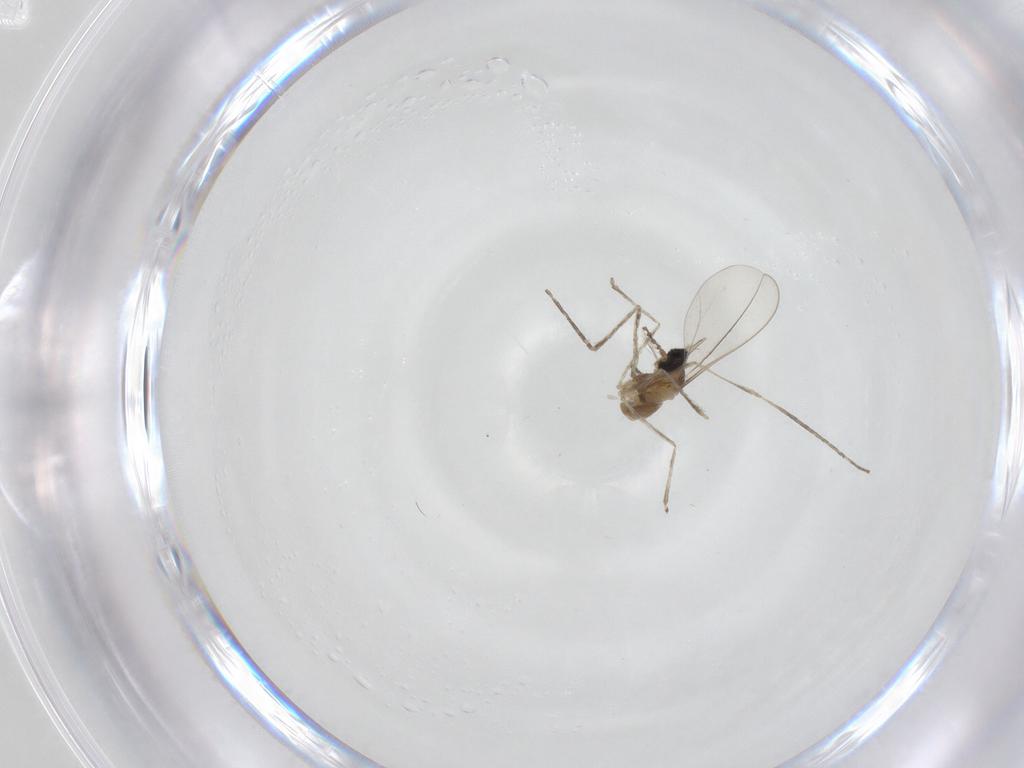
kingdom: Animalia
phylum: Arthropoda
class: Insecta
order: Diptera
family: Cecidomyiidae
